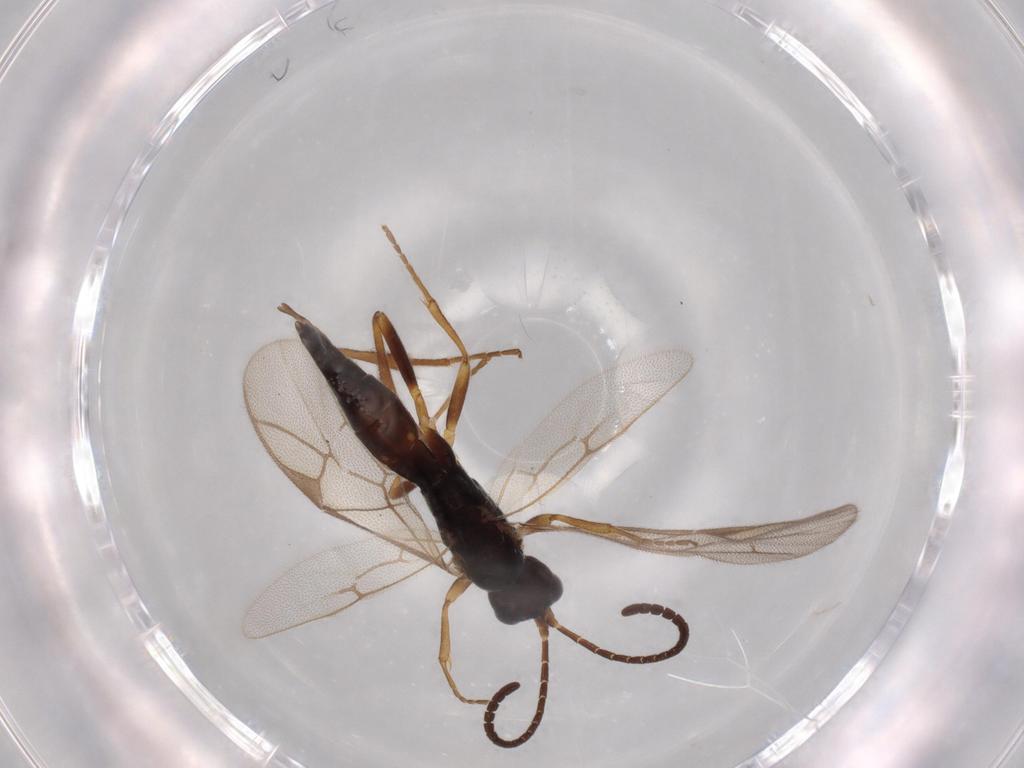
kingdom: Animalia
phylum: Arthropoda
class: Insecta
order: Hymenoptera
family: Ichneumonidae
